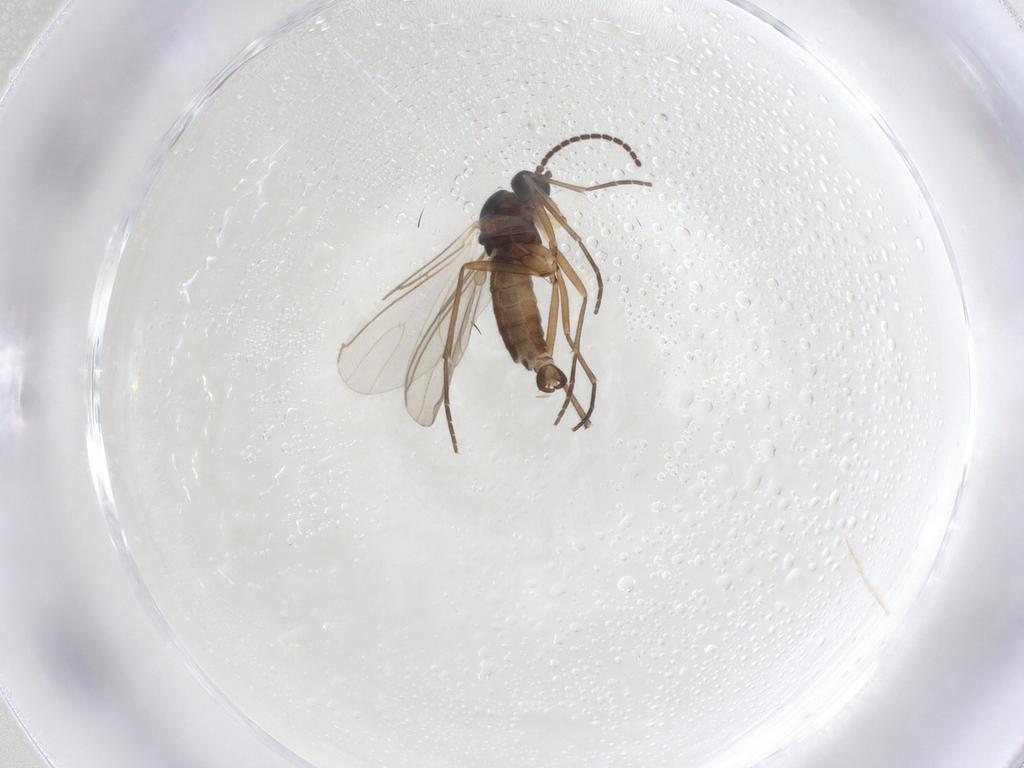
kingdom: Animalia
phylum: Arthropoda
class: Insecta
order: Diptera
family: Sciaridae
